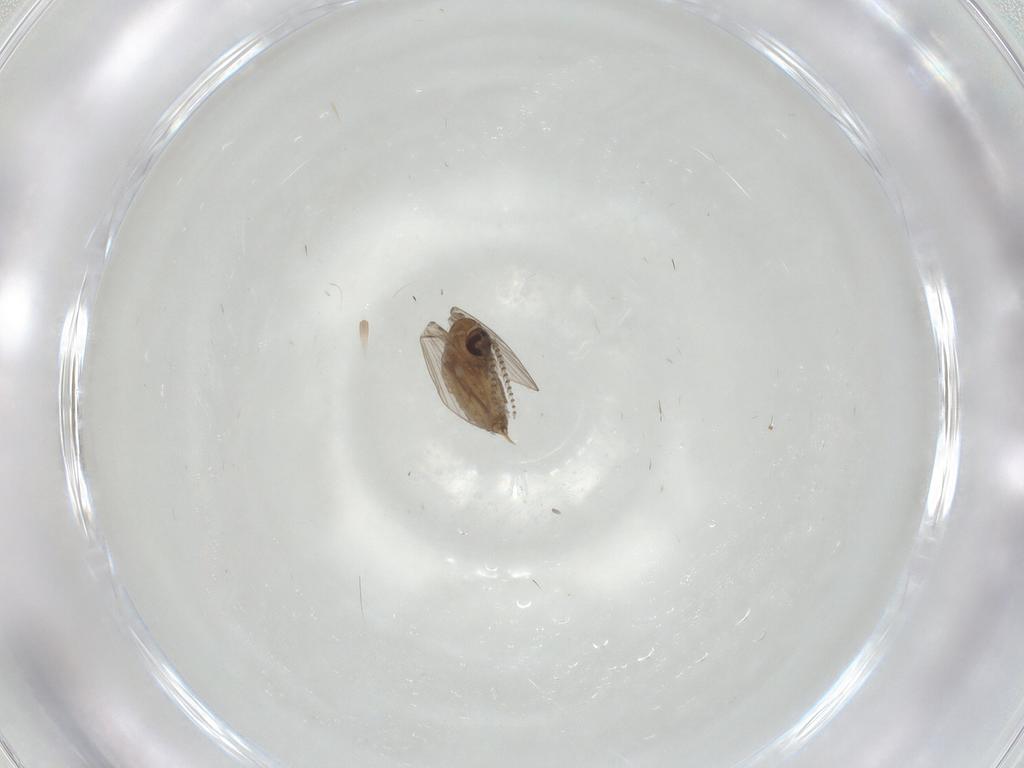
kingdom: Animalia
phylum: Arthropoda
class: Insecta
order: Diptera
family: Psychodidae
